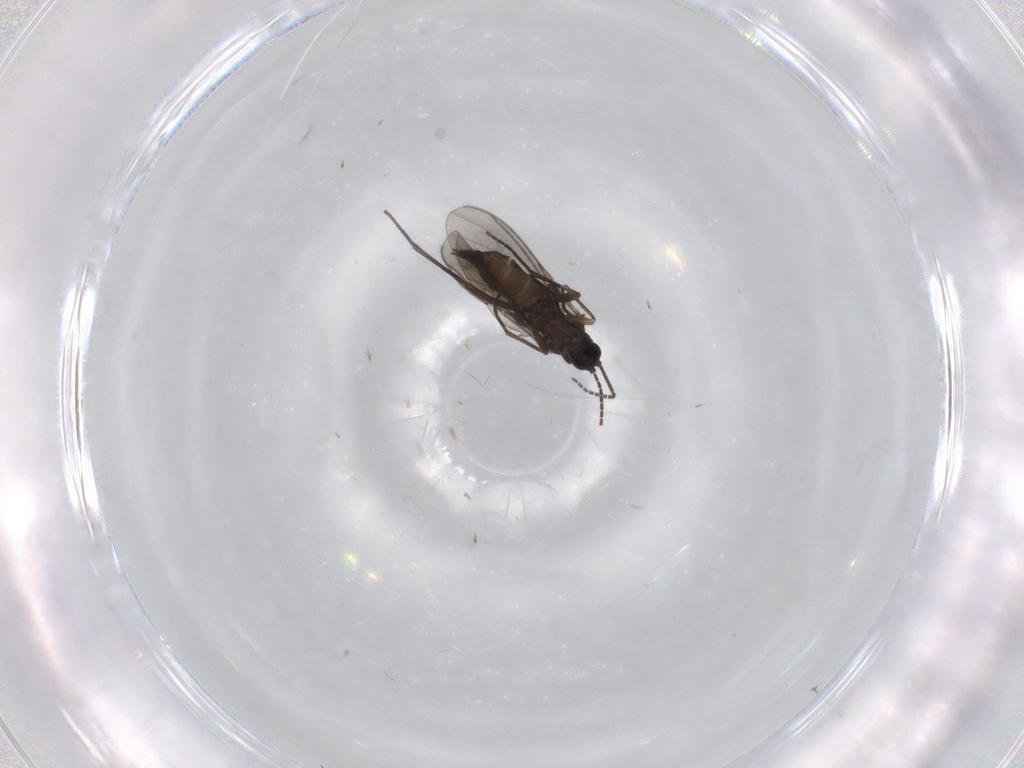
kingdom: Animalia
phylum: Arthropoda
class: Insecta
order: Diptera
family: Sciaridae
